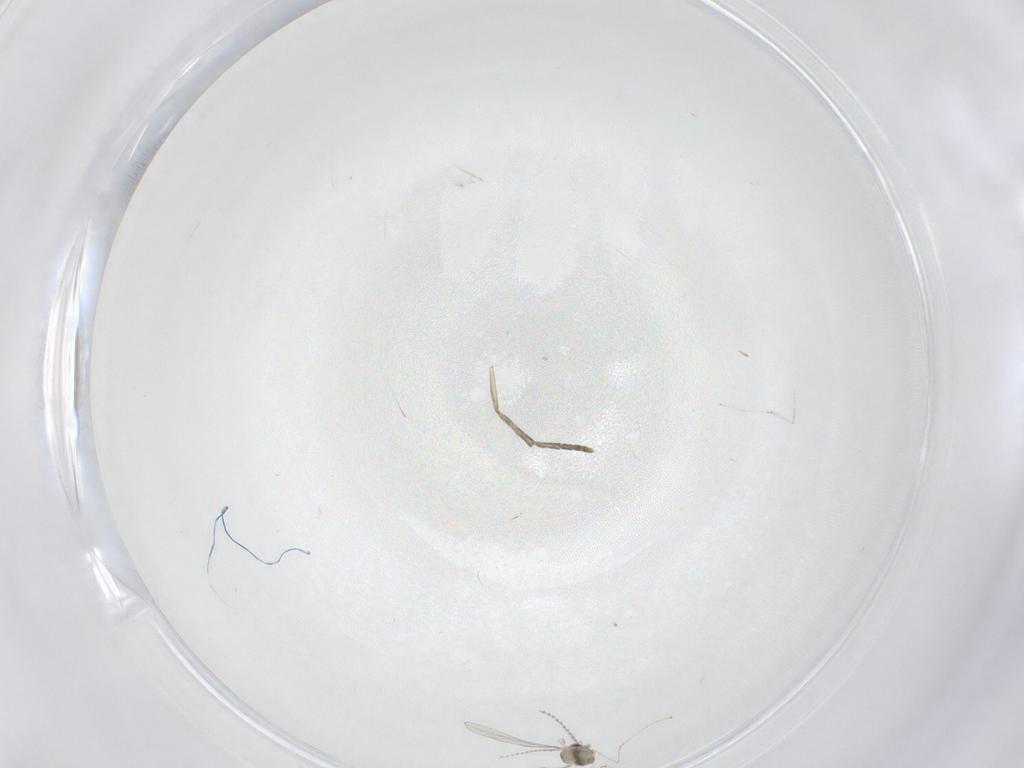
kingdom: Animalia
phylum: Arthropoda
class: Insecta
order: Diptera
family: Cecidomyiidae
